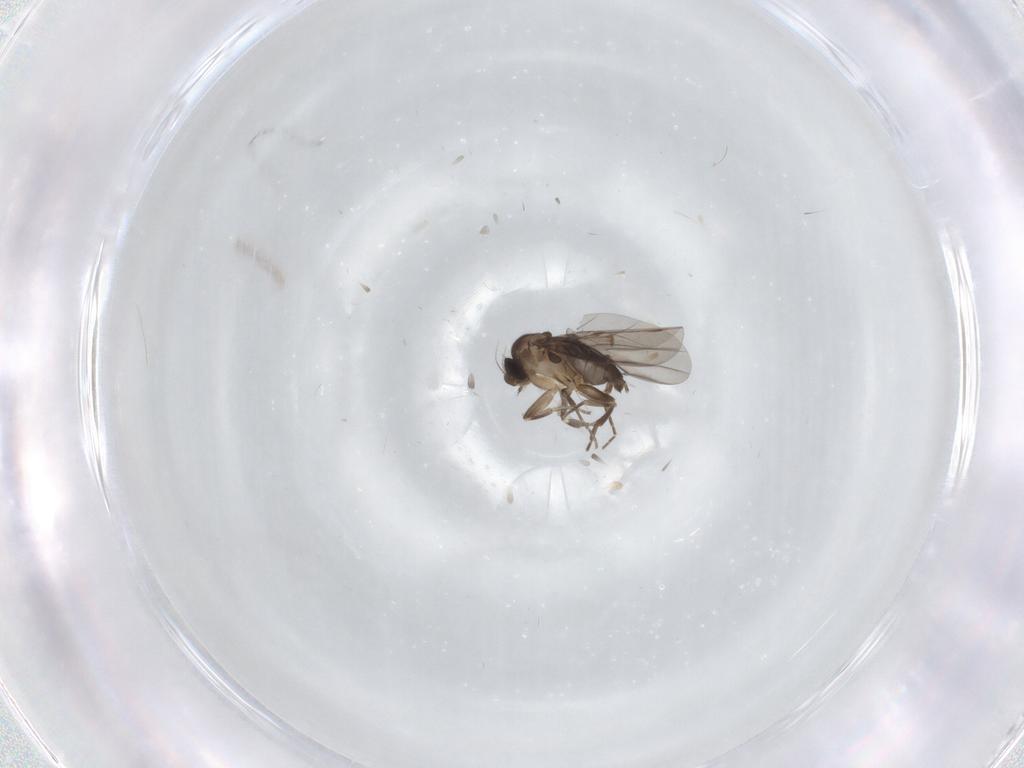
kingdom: Animalia
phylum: Arthropoda
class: Insecta
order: Diptera
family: Phoridae
